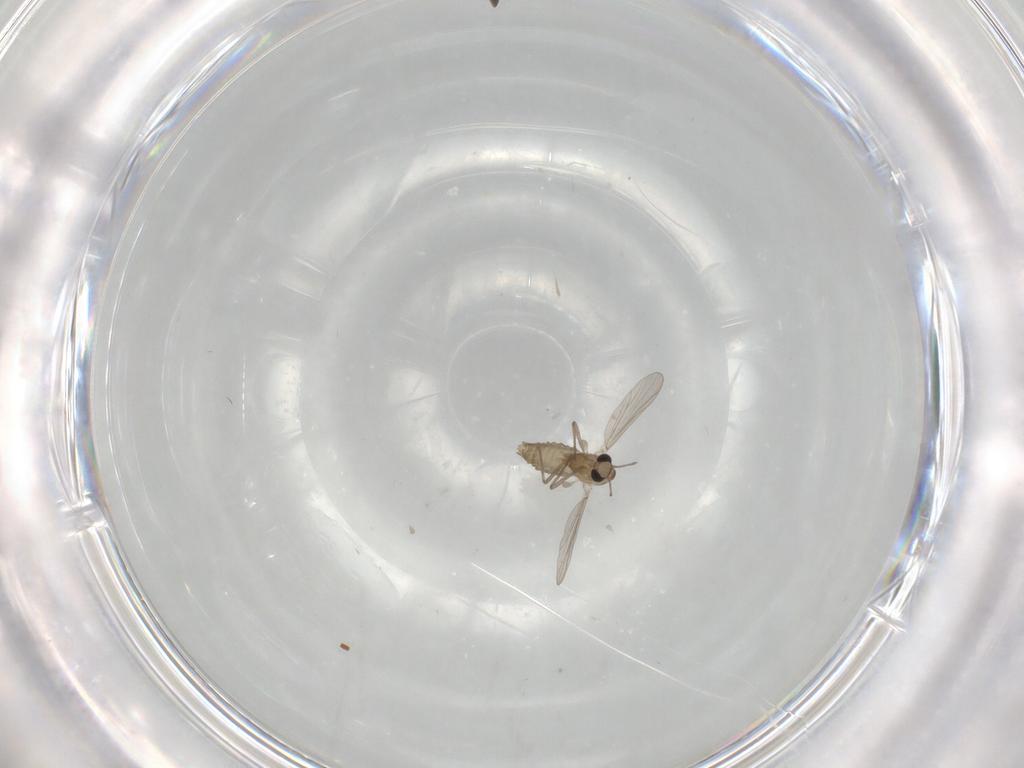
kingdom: Animalia
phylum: Arthropoda
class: Insecta
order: Diptera
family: Chironomidae
